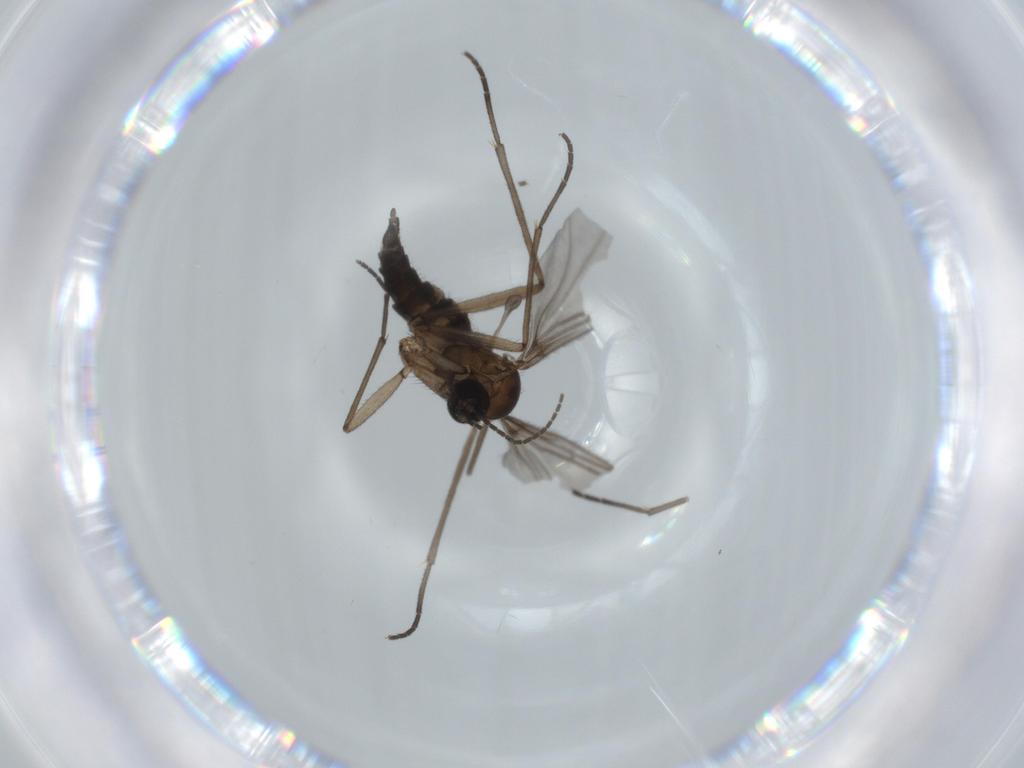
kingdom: Animalia
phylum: Arthropoda
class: Insecta
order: Diptera
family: Sciaridae
